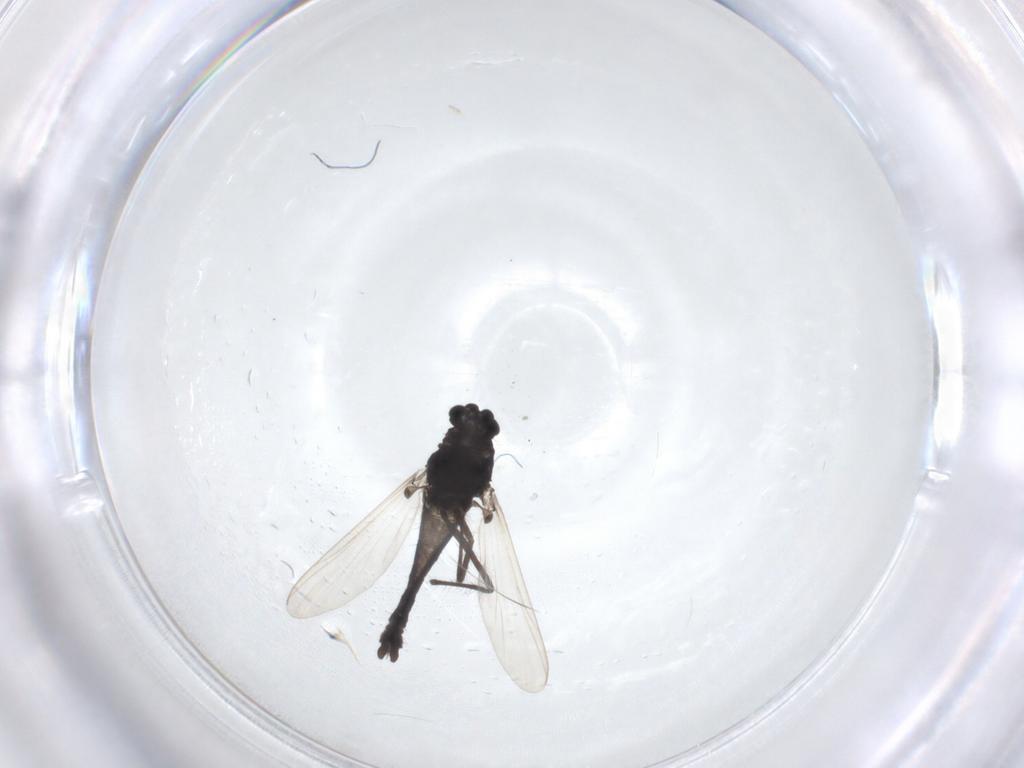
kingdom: Animalia
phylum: Arthropoda
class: Insecta
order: Diptera
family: Chironomidae
